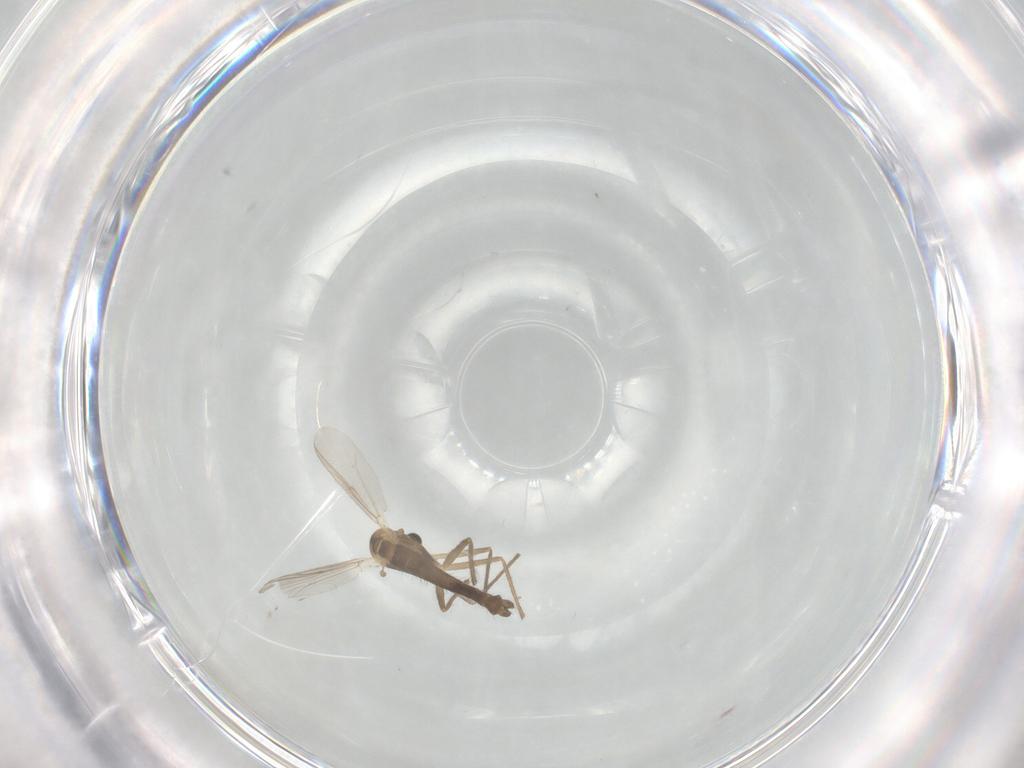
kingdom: Animalia
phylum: Arthropoda
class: Insecta
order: Diptera
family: Chironomidae
